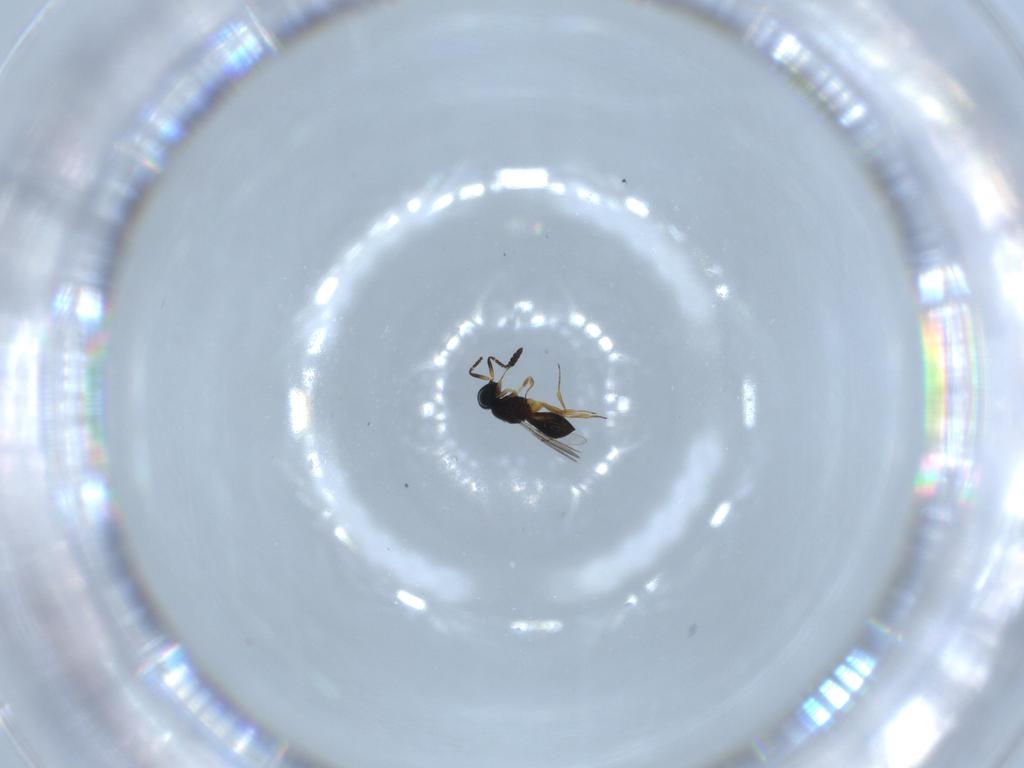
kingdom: Animalia
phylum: Arthropoda
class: Insecta
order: Hymenoptera
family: Scelionidae
